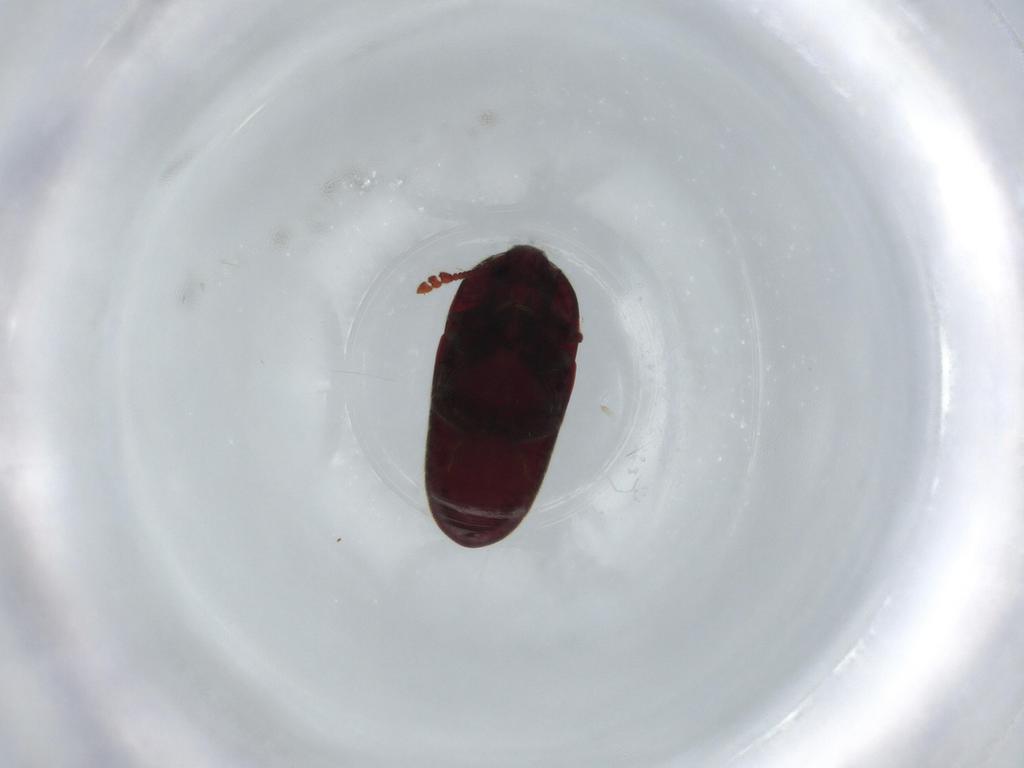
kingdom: Animalia
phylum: Arthropoda
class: Insecta
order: Coleoptera
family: Throscidae
